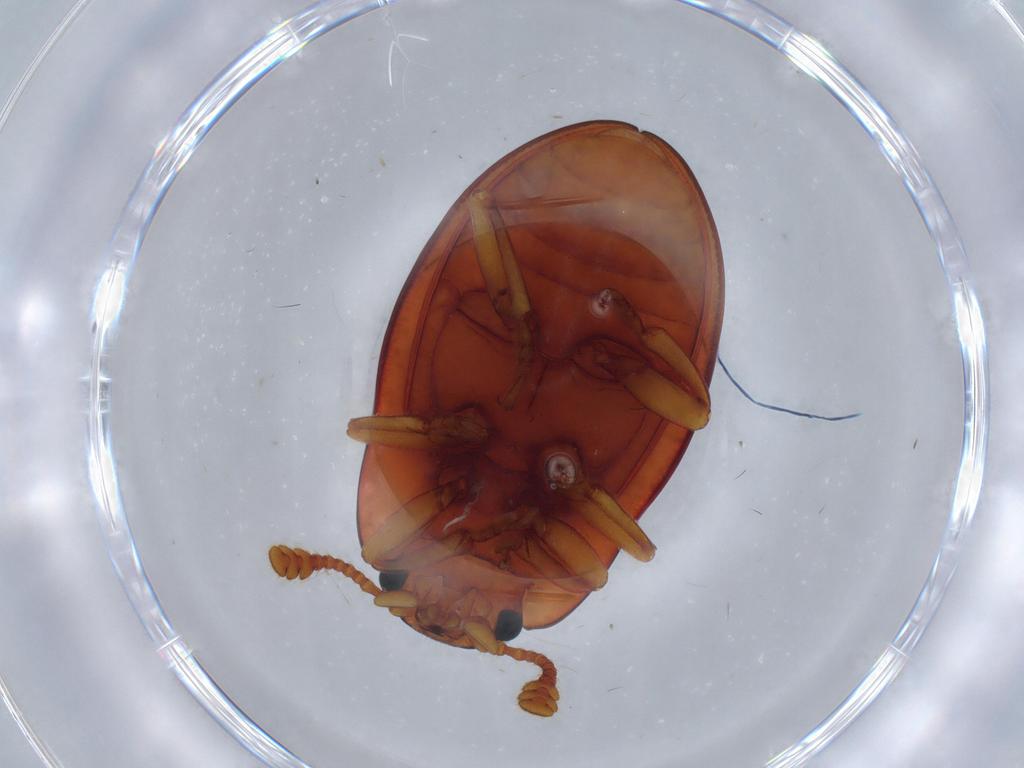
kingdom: Animalia
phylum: Arthropoda
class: Insecta
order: Coleoptera
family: Erotylidae
